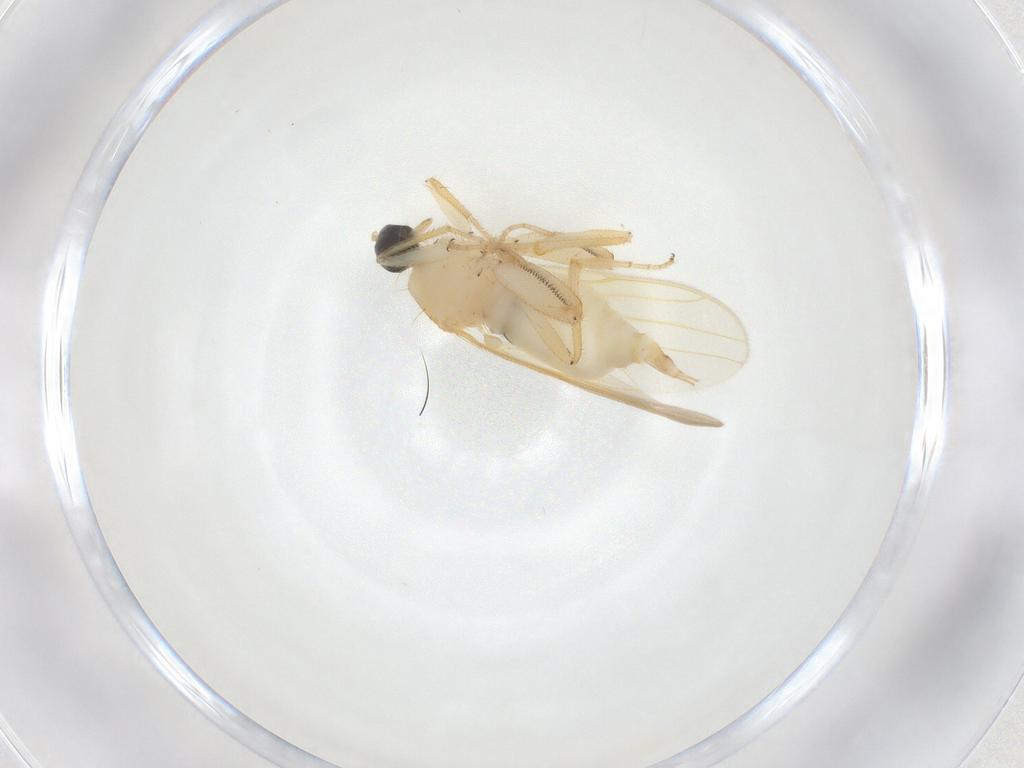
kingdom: Animalia
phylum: Arthropoda
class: Insecta
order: Diptera
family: Hybotidae
